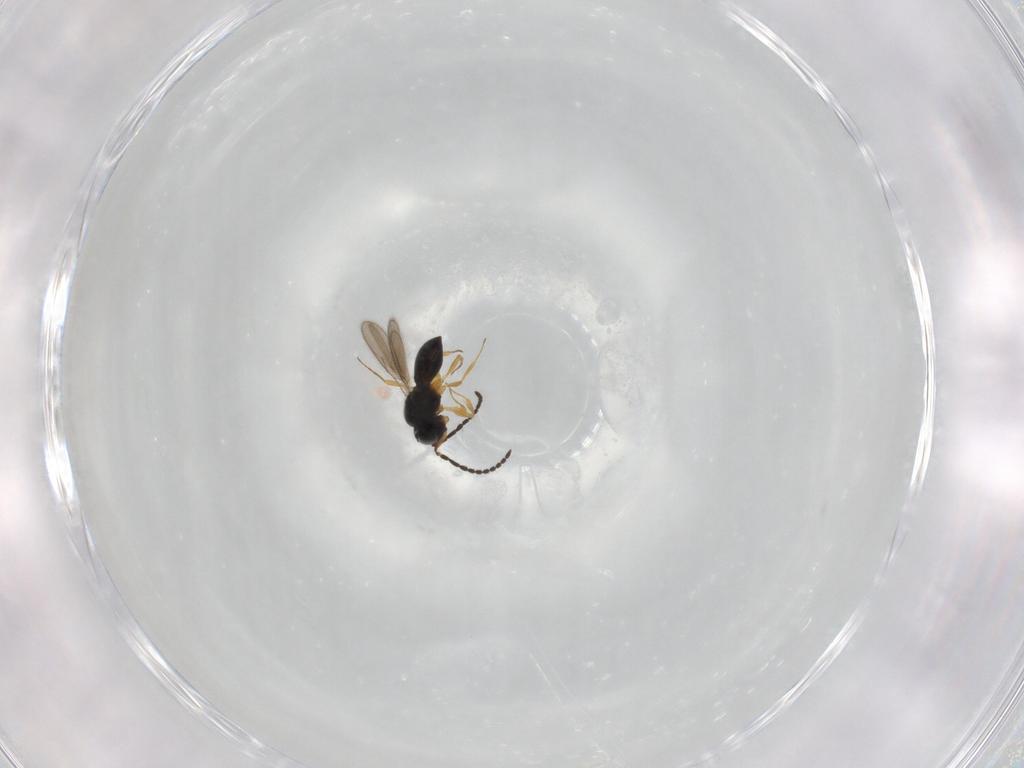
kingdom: Animalia
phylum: Arthropoda
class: Insecta
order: Hymenoptera
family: Scelionidae
